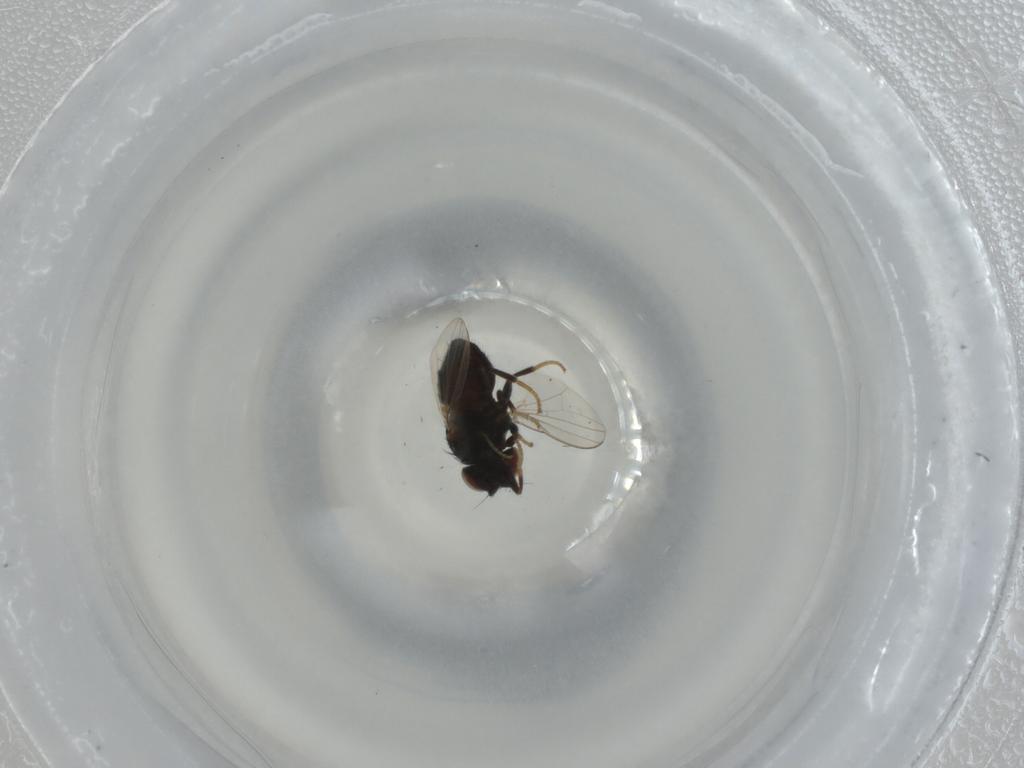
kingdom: Animalia
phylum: Arthropoda
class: Insecta
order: Diptera
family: Milichiidae
